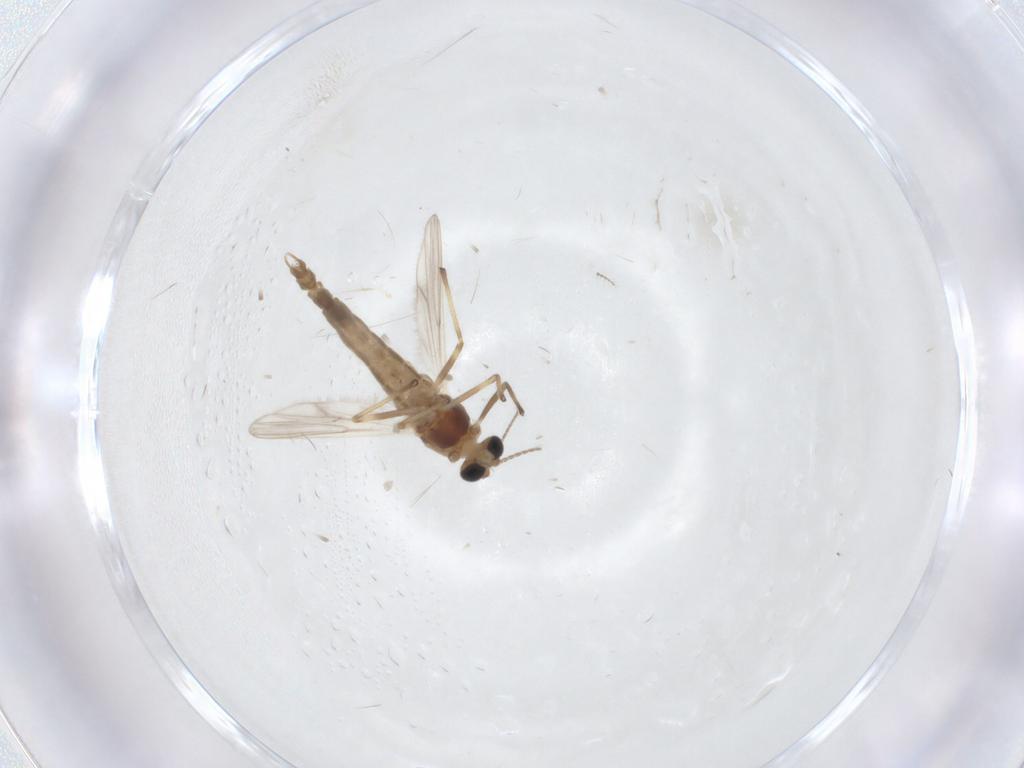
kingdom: Animalia
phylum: Arthropoda
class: Insecta
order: Diptera
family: Chironomidae
